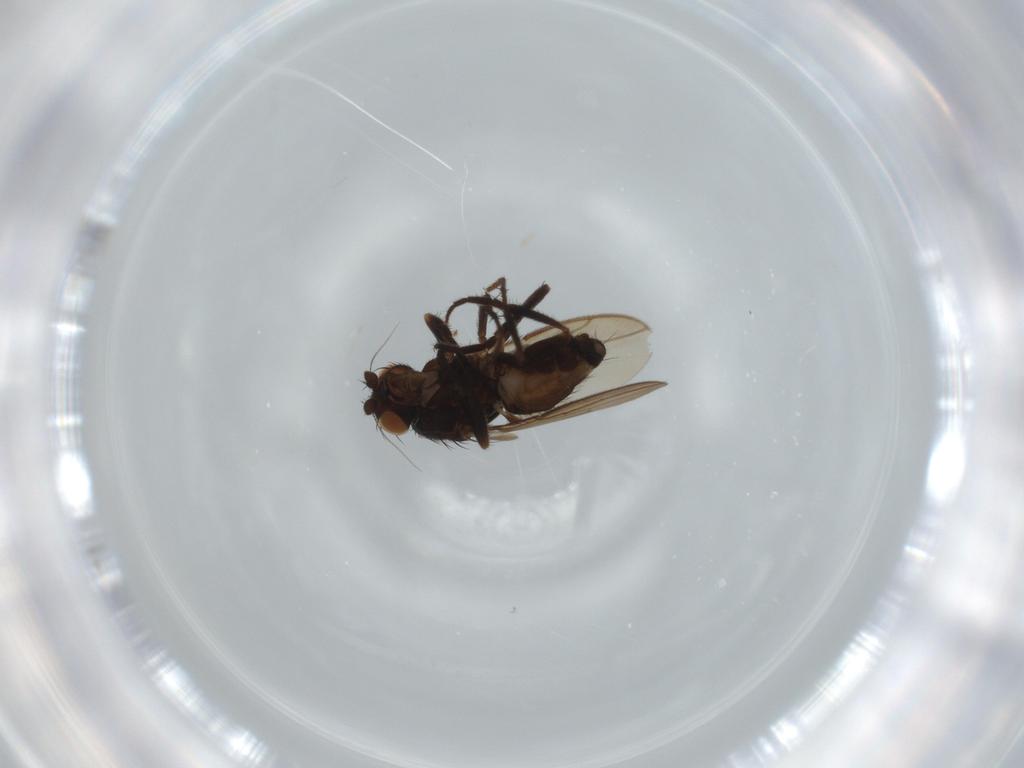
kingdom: Animalia
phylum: Arthropoda
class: Insecta
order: Diptera
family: Sphaeroceridae
